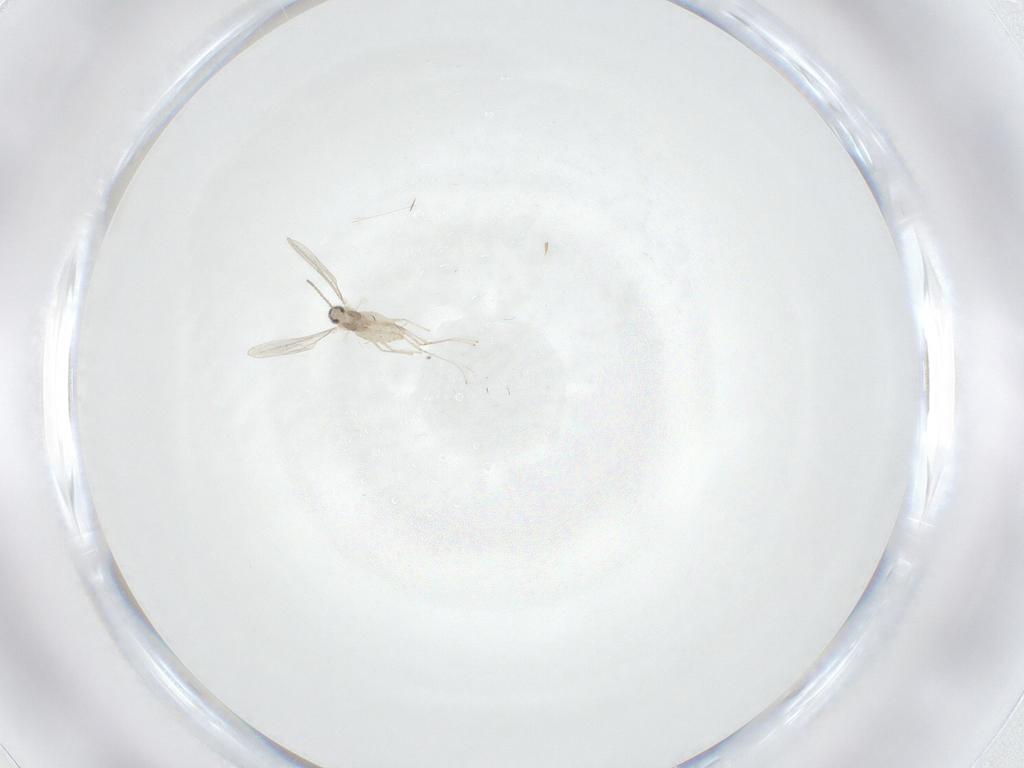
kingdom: Animalia
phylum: Arthropoda
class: Insecta
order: Diptera
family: Cecidomyiidae
